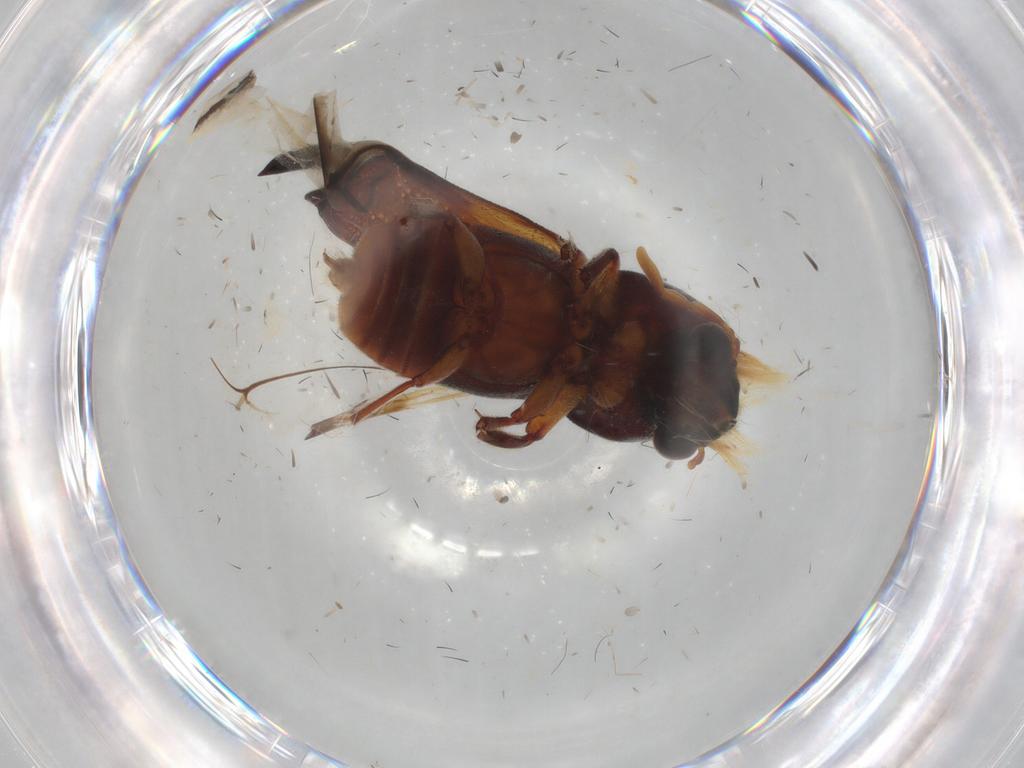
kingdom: Animalia
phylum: Arthropoda
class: Insecta
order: Coleoptera
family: Bostrichidae
